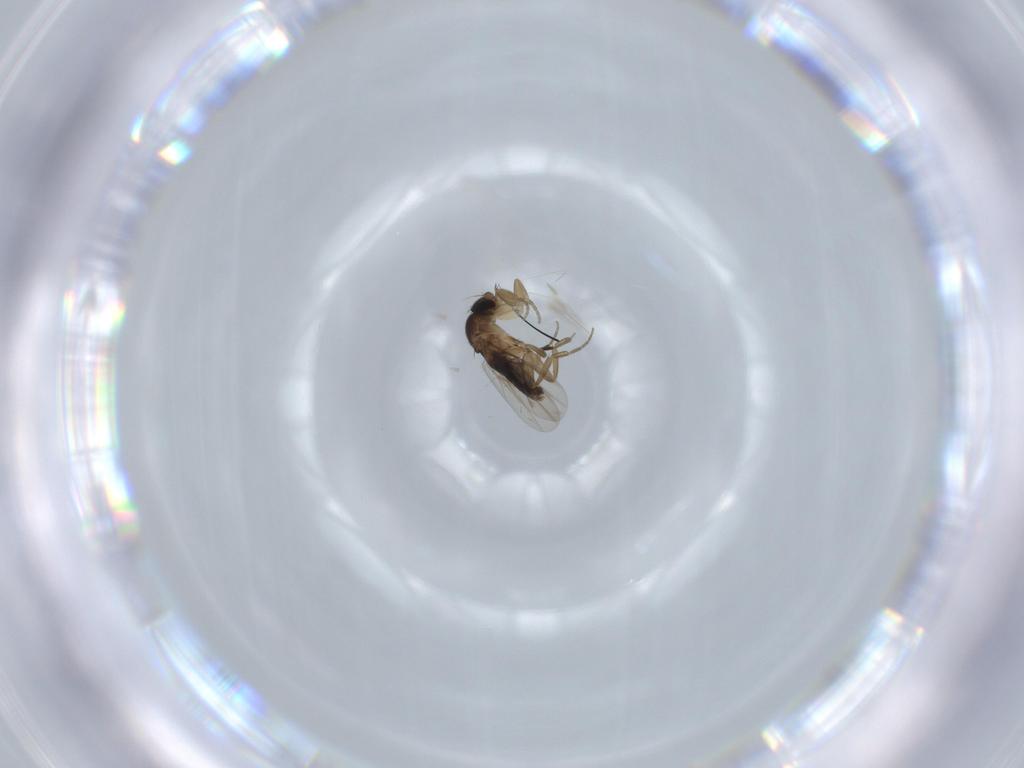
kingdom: Animalia
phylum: Arthropoda
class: Insecta
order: Diptera
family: Phoridae
